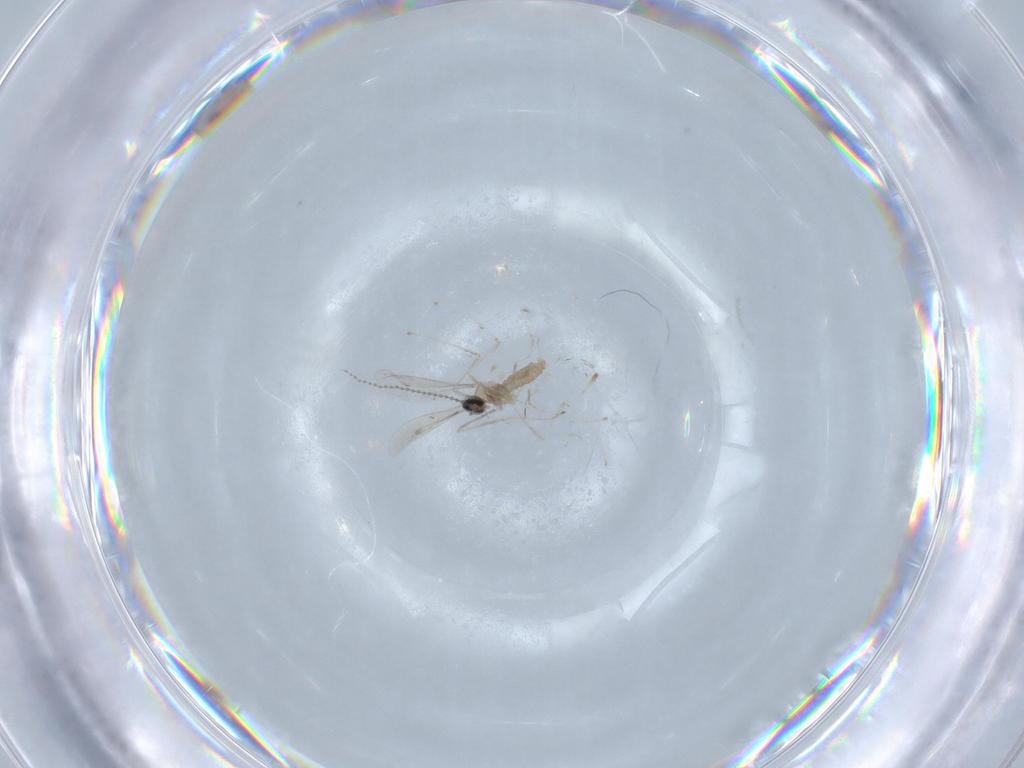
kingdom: Animalia
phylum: Arthropoda
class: Insecta
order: Diptera
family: Cecidomyiidae
